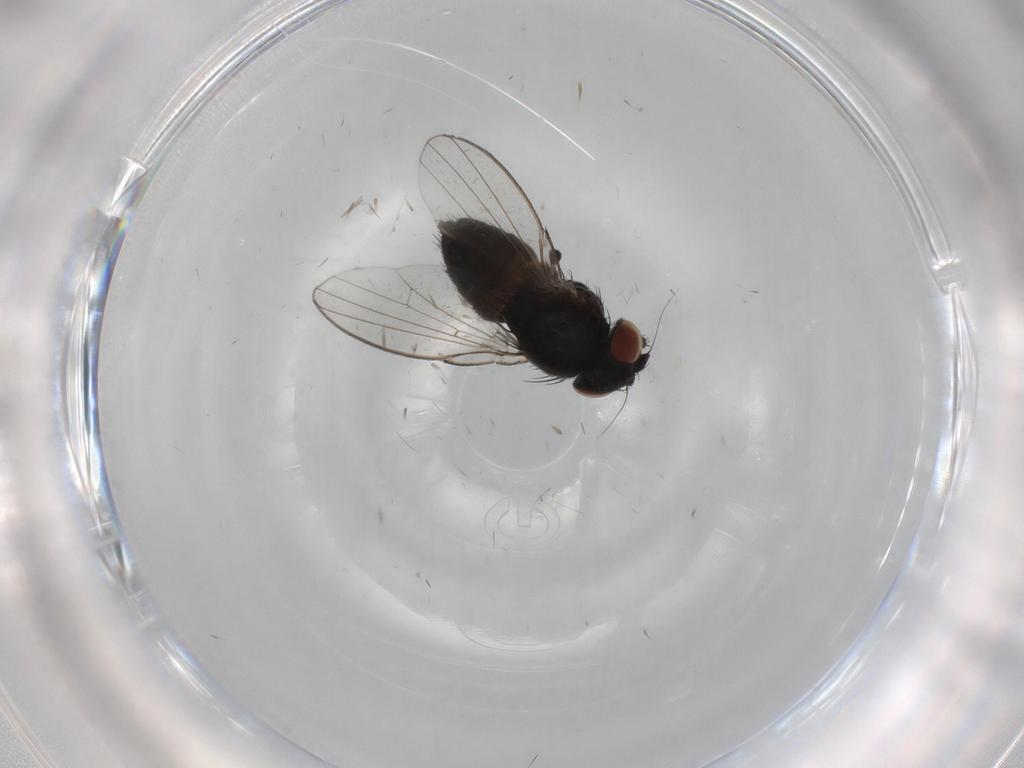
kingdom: Animalia
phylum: Arthropoda
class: Insecta
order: Diptera
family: Milichiidae
